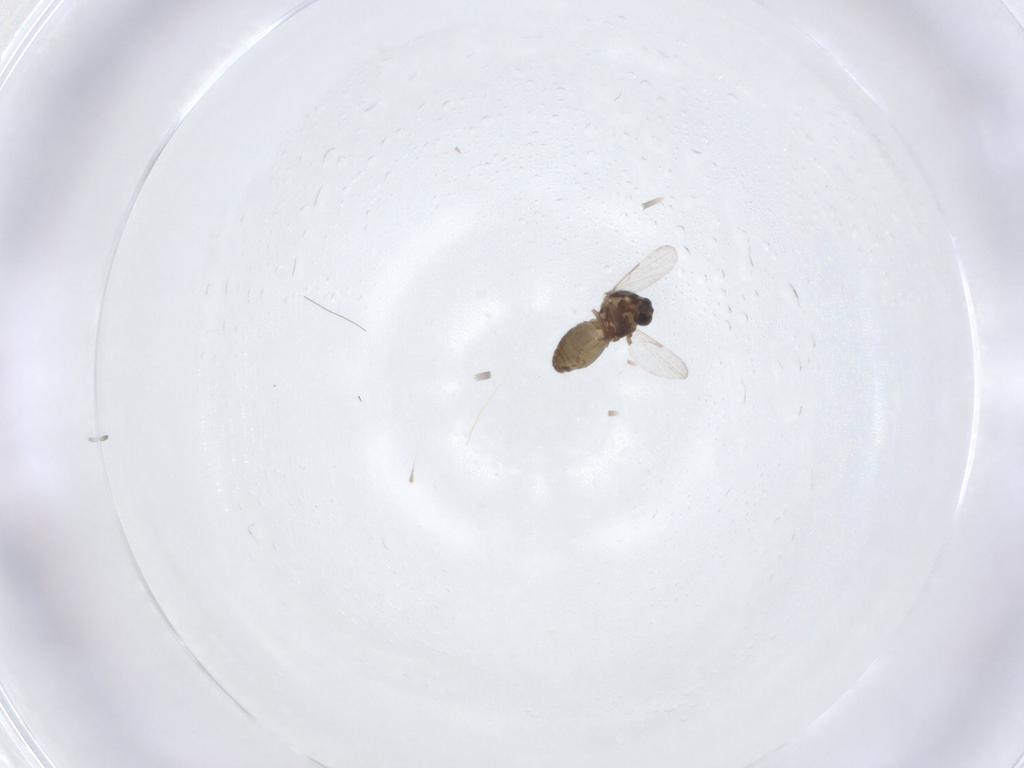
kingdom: Animalia
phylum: Arthropoda
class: Insecta
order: Diptera
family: Ceratopogonidae
